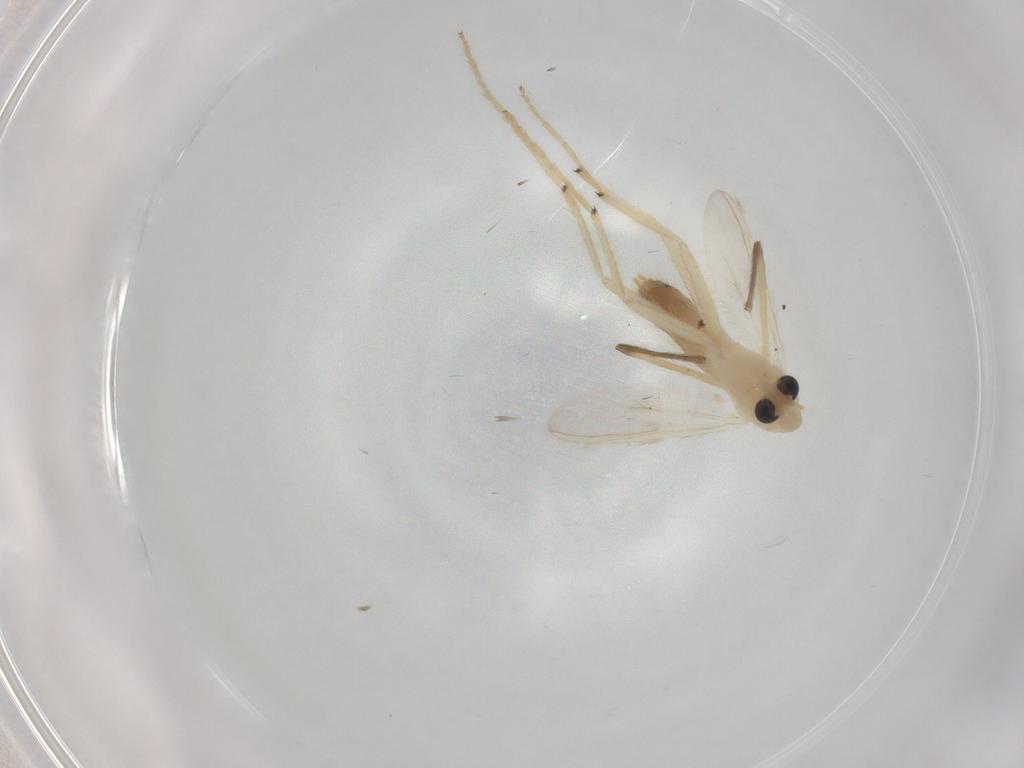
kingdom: Animalia
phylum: Arthropoda
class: Insecta
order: Diptera
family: Chironomidae
